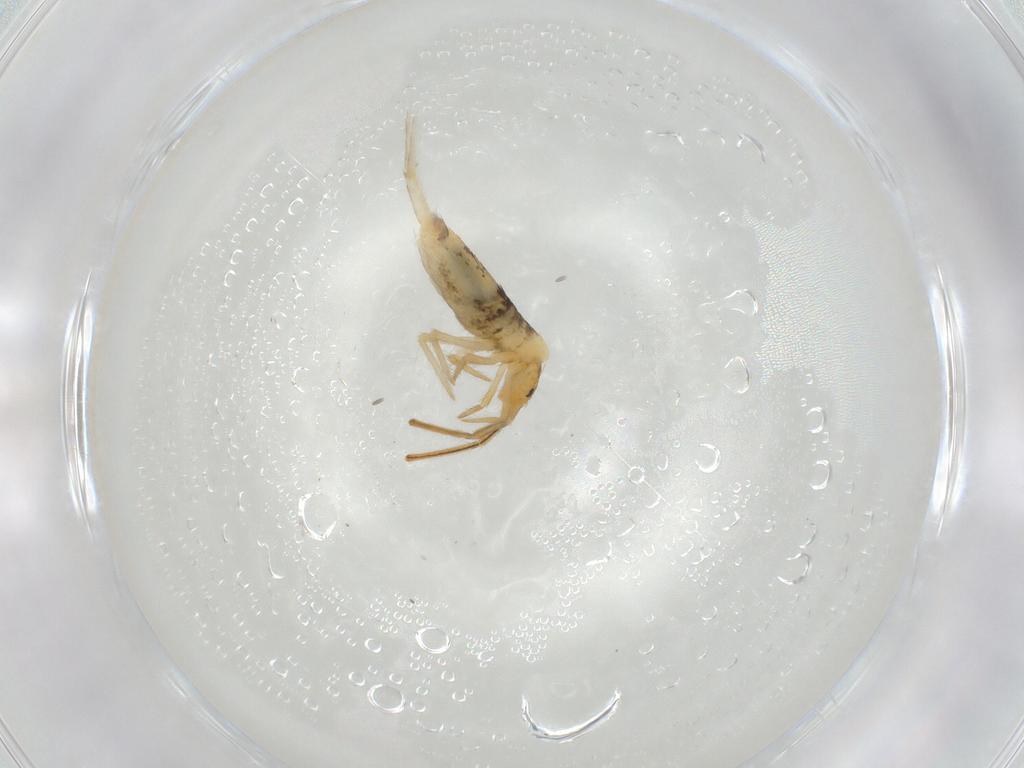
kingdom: Animalia
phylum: Arthropoda
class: Collembola
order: Entomobryomorpha
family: Entomobryidae
